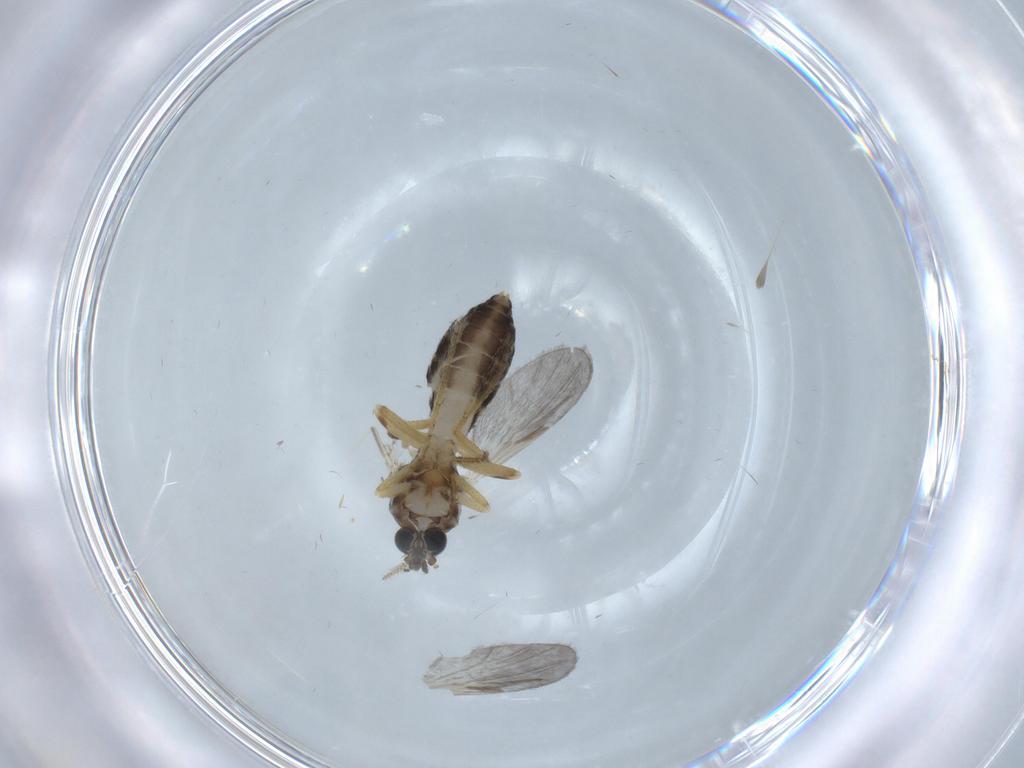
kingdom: Animalia
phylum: Arthropoda
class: Insecta
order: Diptera
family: Ceratopogonidae
